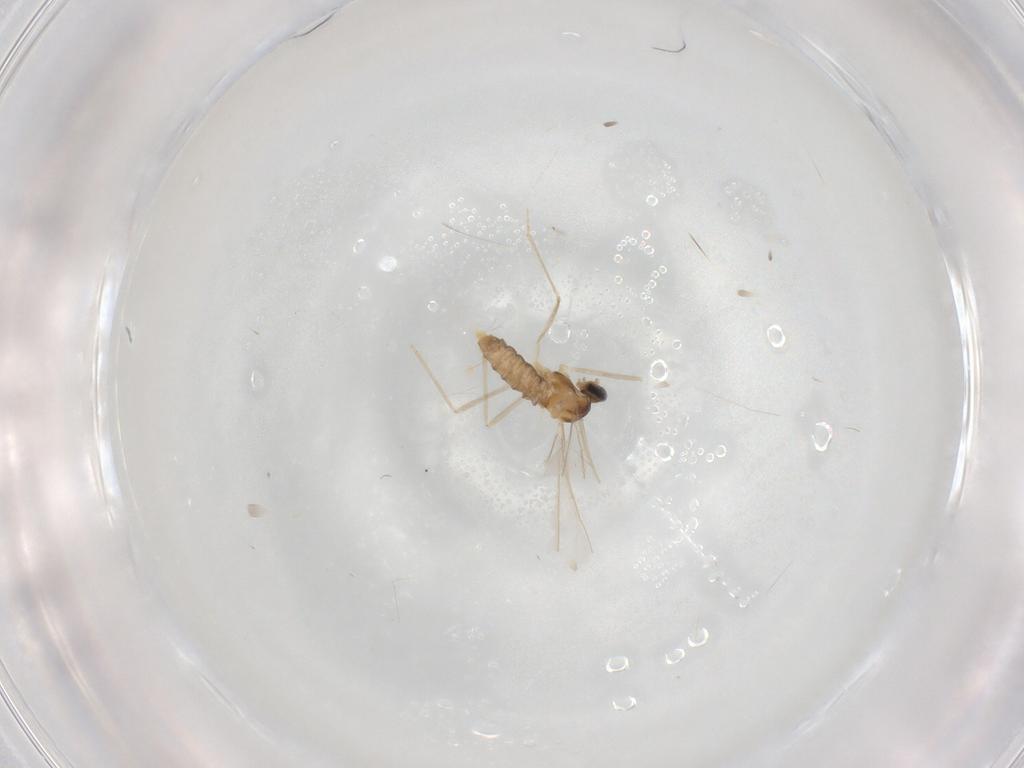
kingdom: Animalia
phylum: Arthropoda
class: Insecta
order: Diptera
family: Cecidomyiidae
